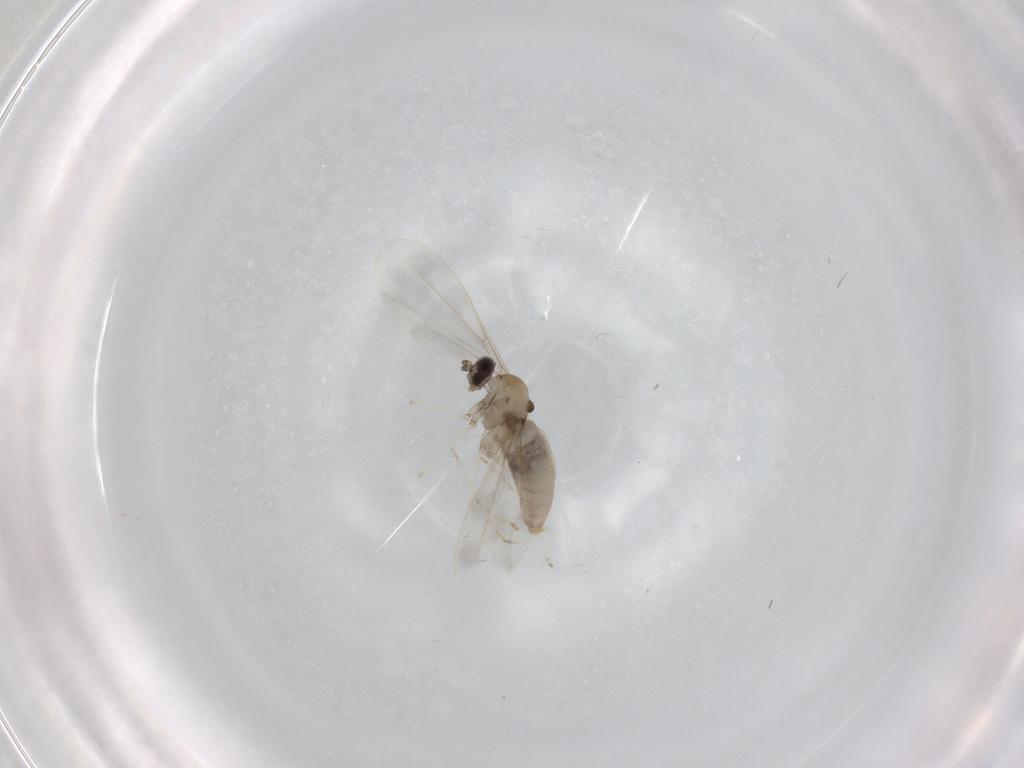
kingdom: Animalia
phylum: Arthropoda
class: Insecta
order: Diptera
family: Cecidomyiidae
